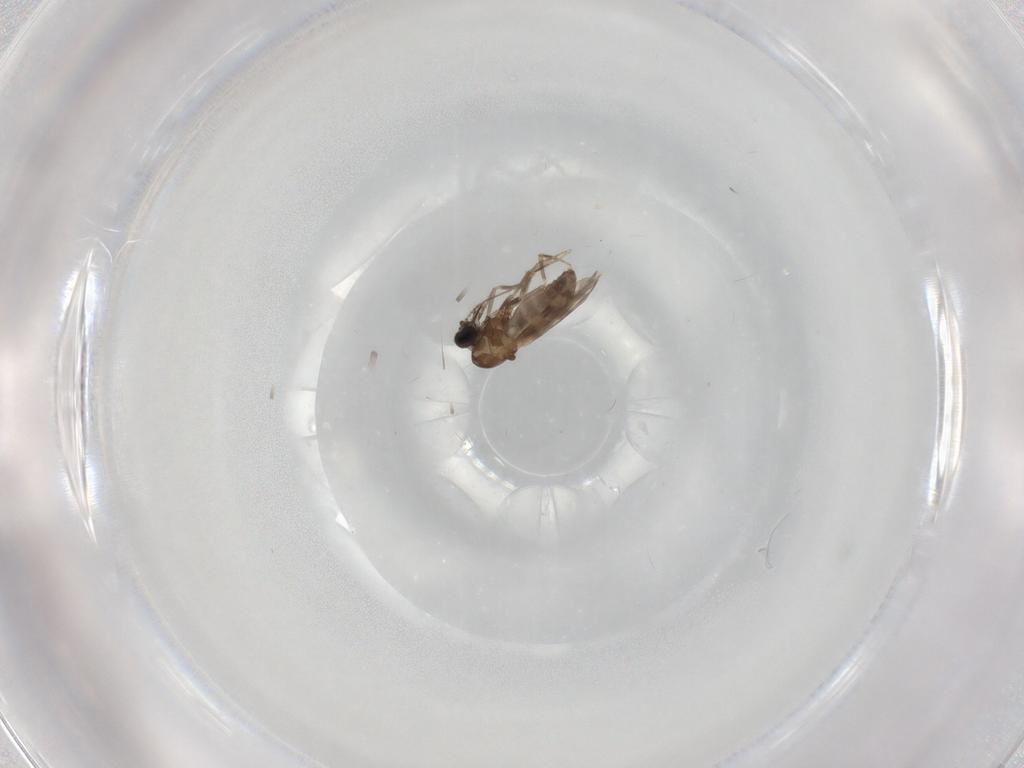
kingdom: Animalia
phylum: Arthropoda
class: Insecta
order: Diptera
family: Ceratopogonidae
